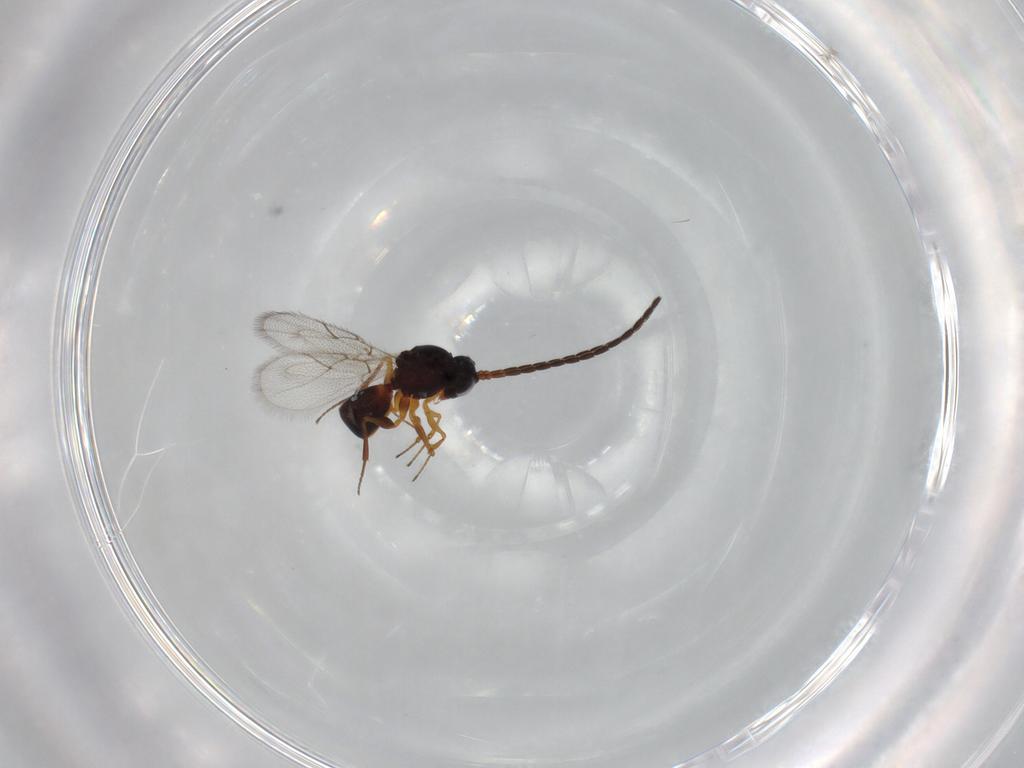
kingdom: Animalia
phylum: Arthropoda
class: Insecta
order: Hymenoptera
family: Figitidae
